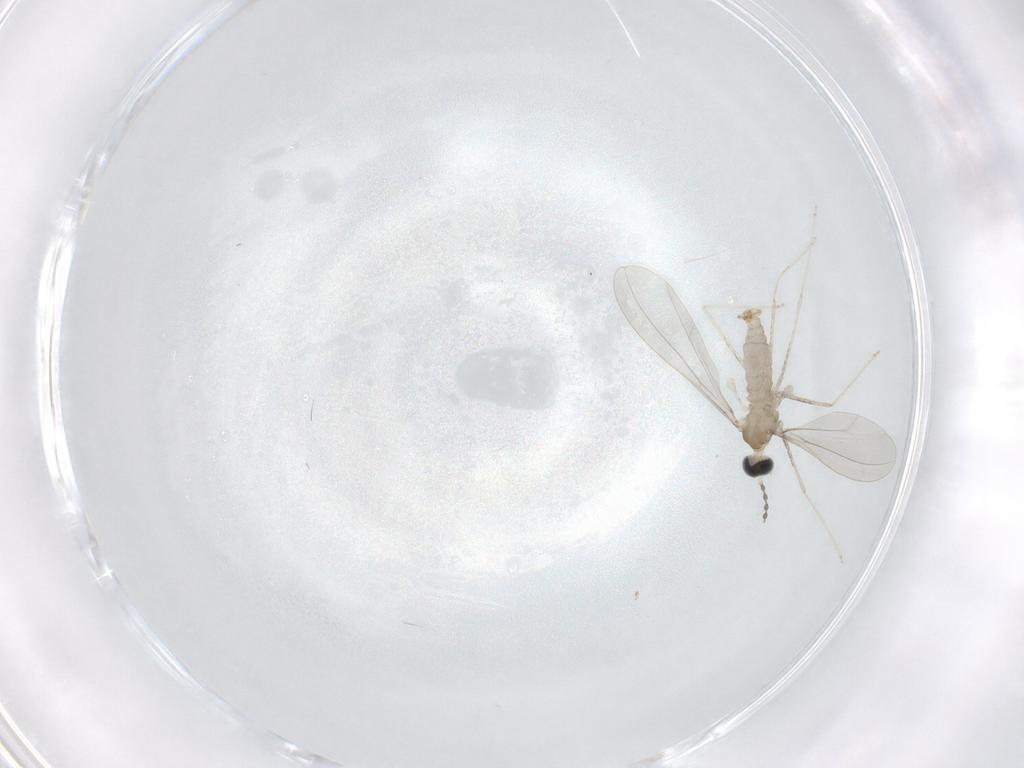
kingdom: Animalia
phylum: Arthropoda
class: Insecta
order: Diptera
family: Cecidomyiidae
